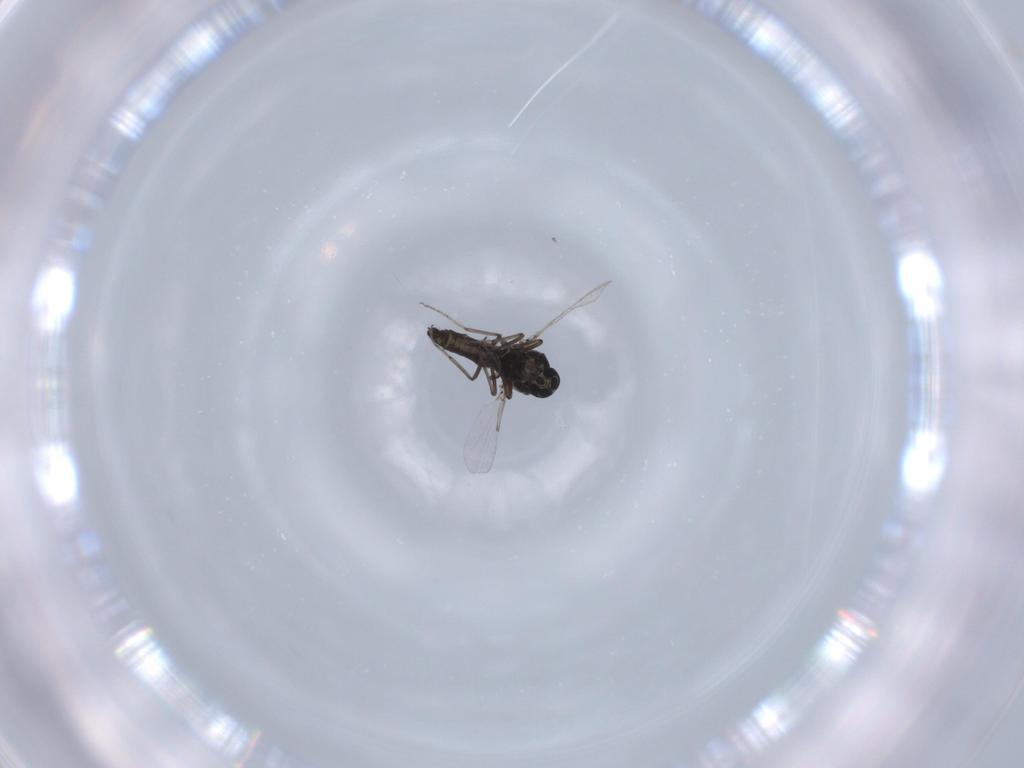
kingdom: Animalia
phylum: Arthropoda
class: Insecta
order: Diptera
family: Ceratopogonidae
